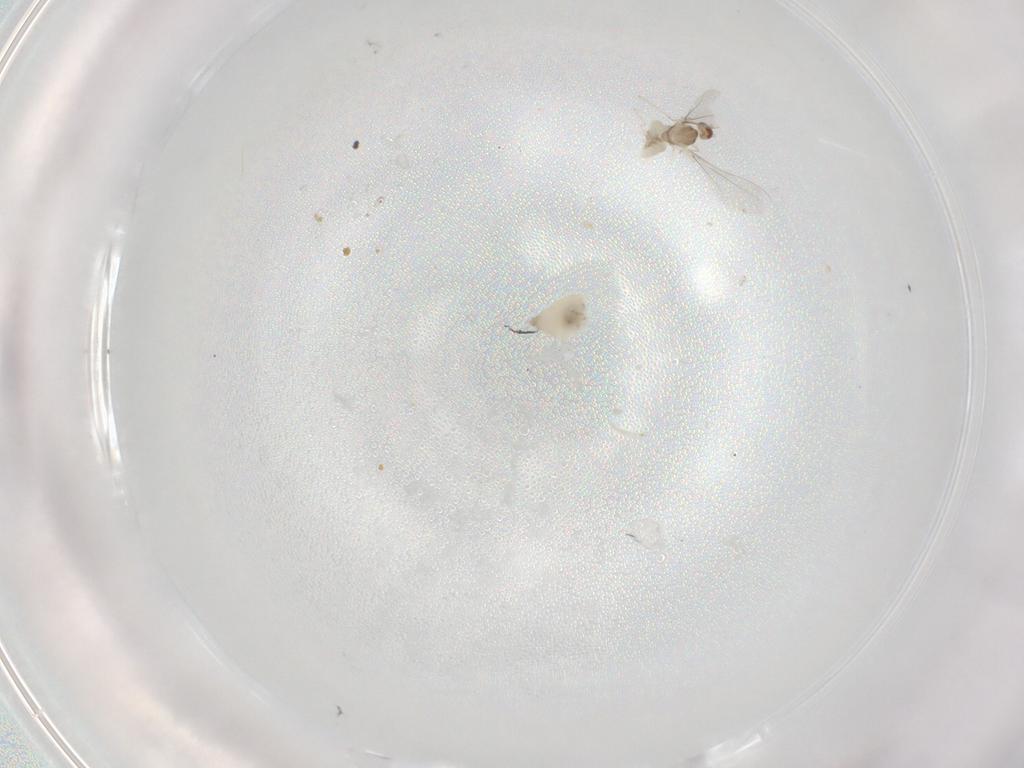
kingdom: Animalia
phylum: Arthropoda
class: Insecta
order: Diptera
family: Cecidomyiidae
